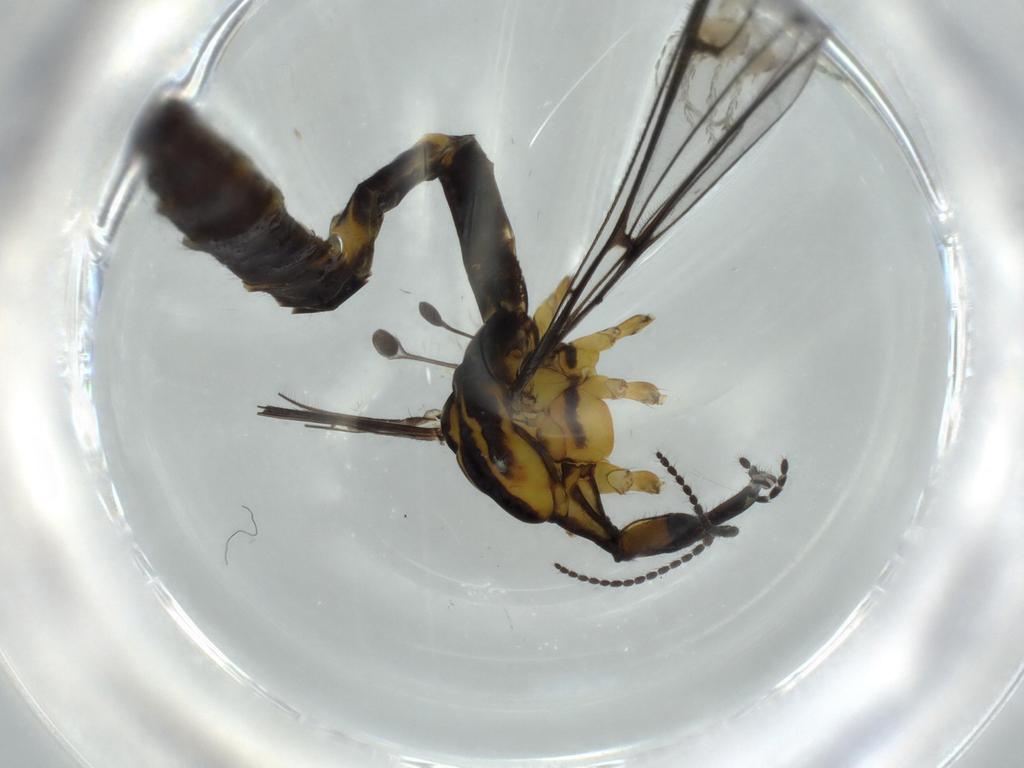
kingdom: Animalia
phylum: Arthropoda
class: Insecta
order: Diptera
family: Limoniidae
